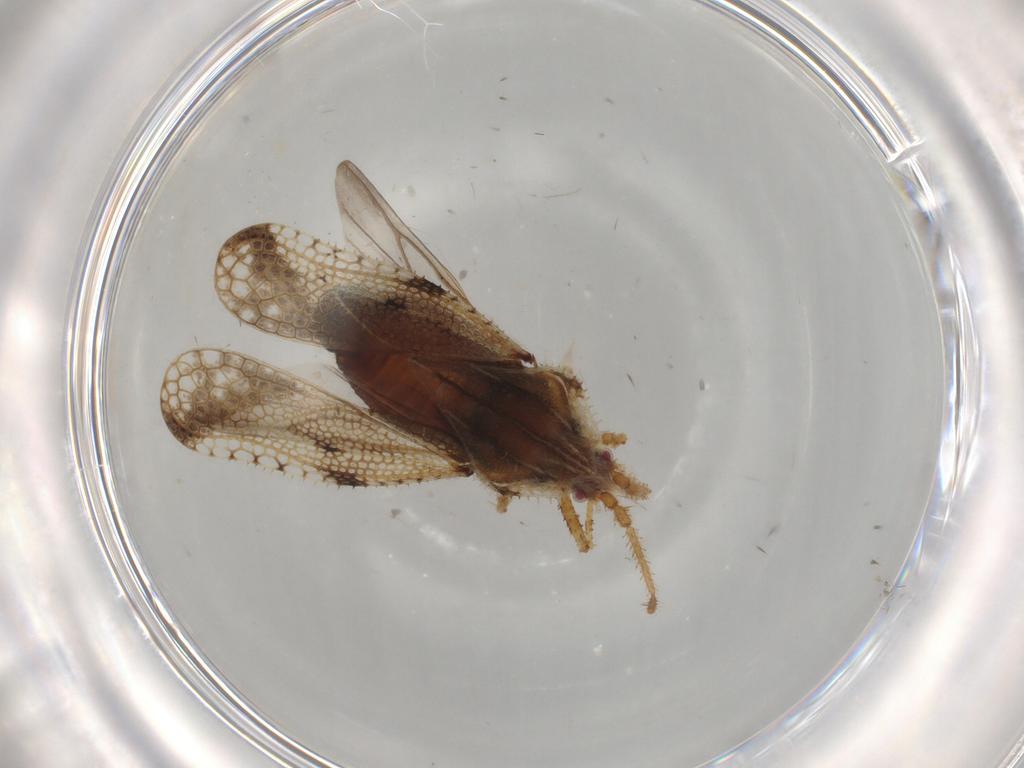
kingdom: Animalia
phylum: Arthropoda
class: Insecta
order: Hemiptera
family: Tingidae
